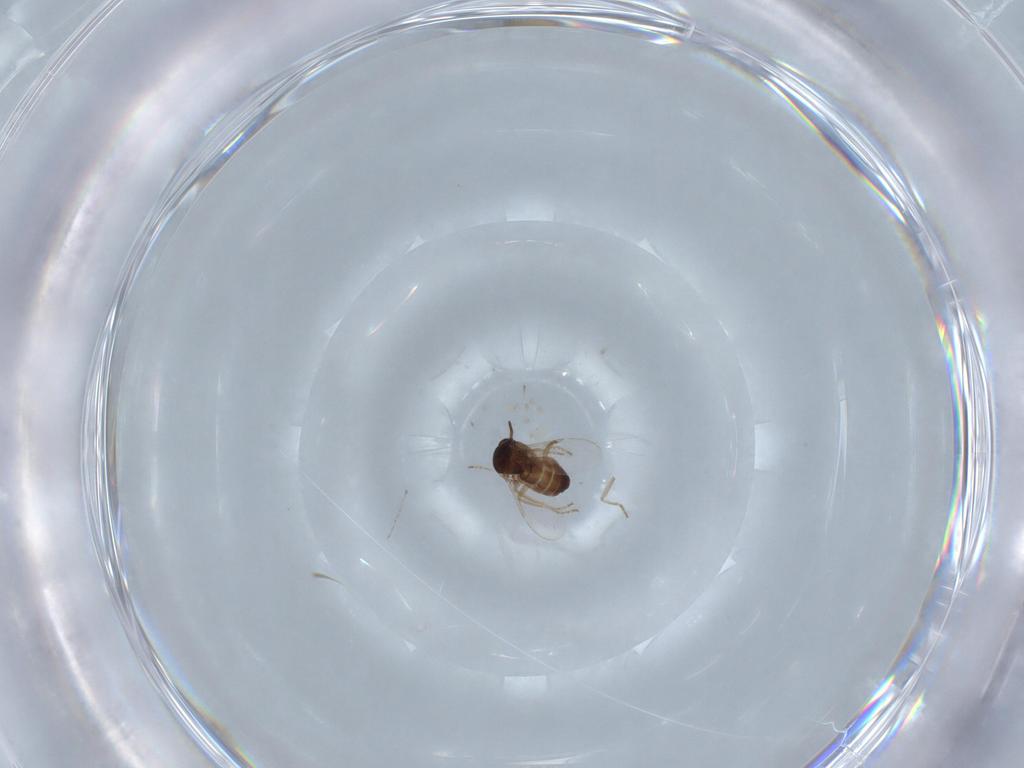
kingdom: Animalia
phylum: Arthropoda
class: Insecta
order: Diptera
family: Ceratopogonidae
